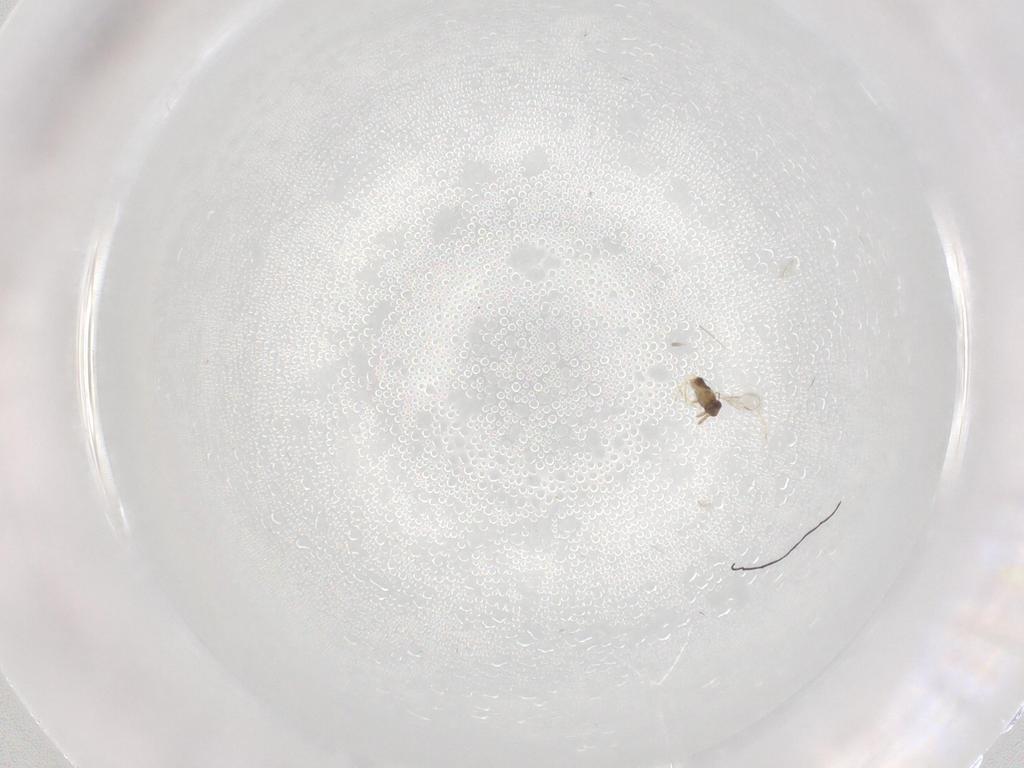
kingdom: Animalia
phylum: Arthropoda
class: Insecta
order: Hymenoptera
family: Aphelinidae
